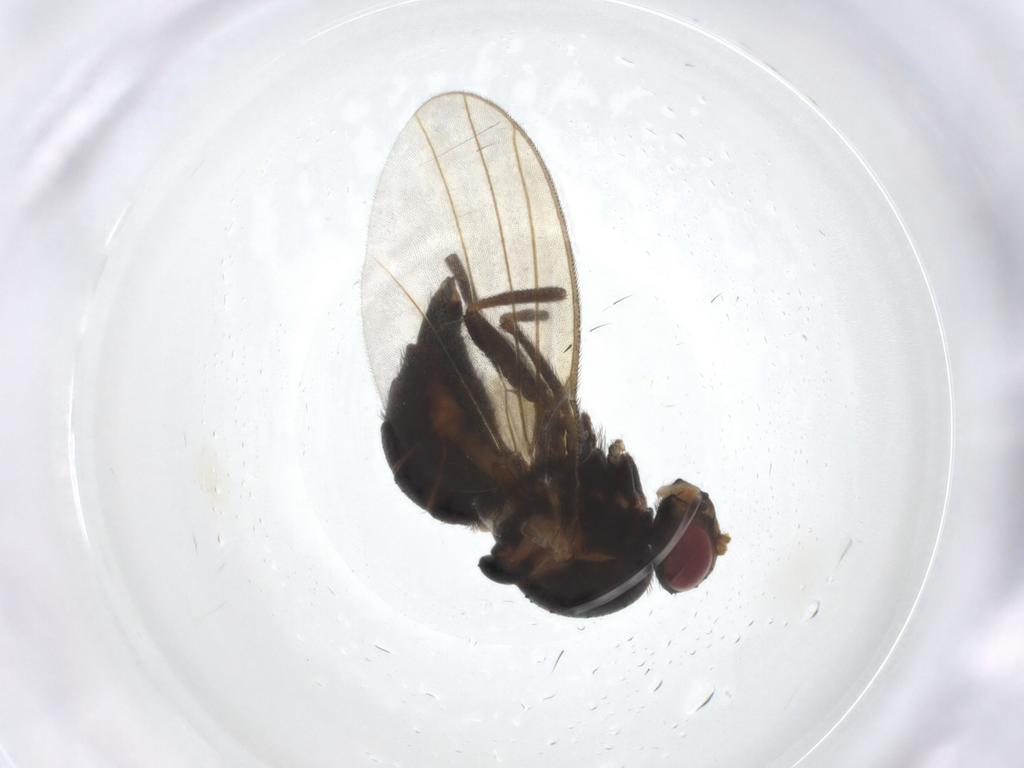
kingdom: Animalia
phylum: Arthropoda
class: Insecta
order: Diptera
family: Agromyzidae
